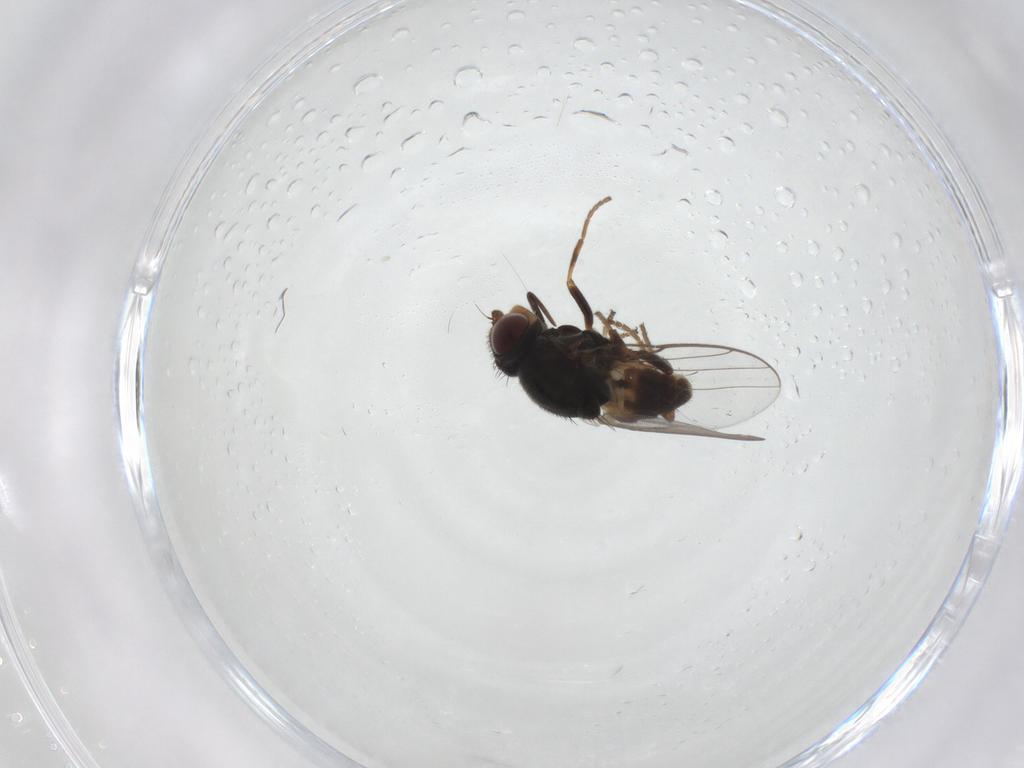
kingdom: Animalia
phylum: Arthropoda
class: Insecta
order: Diptera
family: Chloropidae
